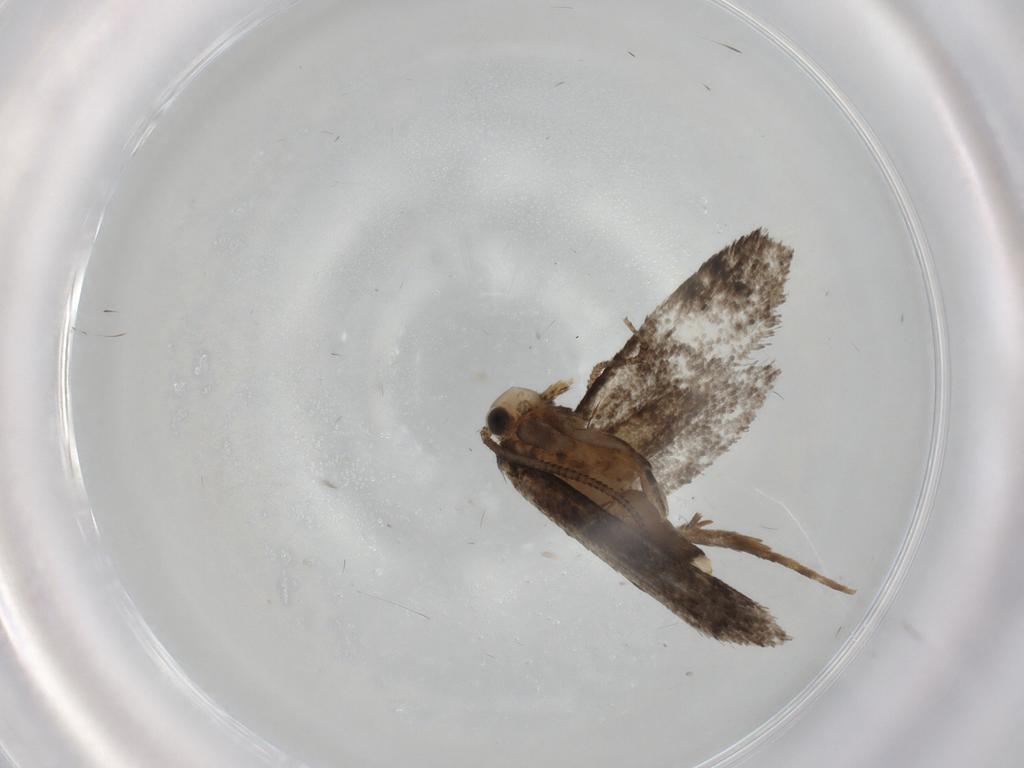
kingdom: Animalia
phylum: Arthropoda
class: Insecta
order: Lepidoptera
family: Tineidae
